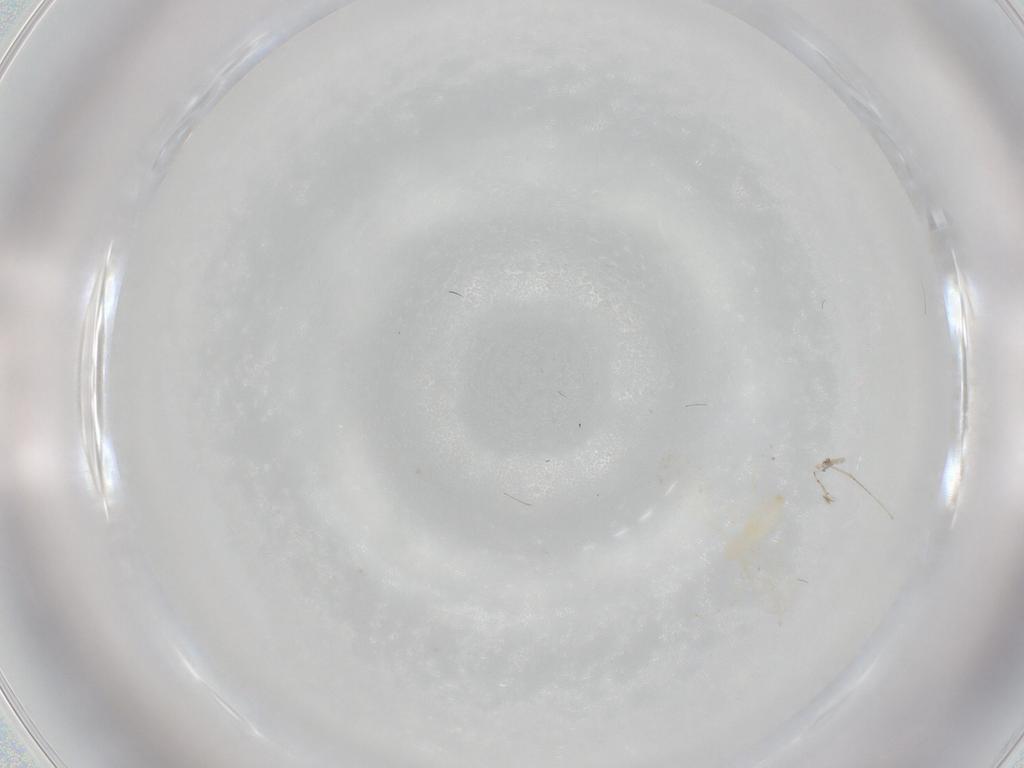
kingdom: Animalia
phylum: Arthropoda
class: Insecta
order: Diptera
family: Cecidomyiidae
